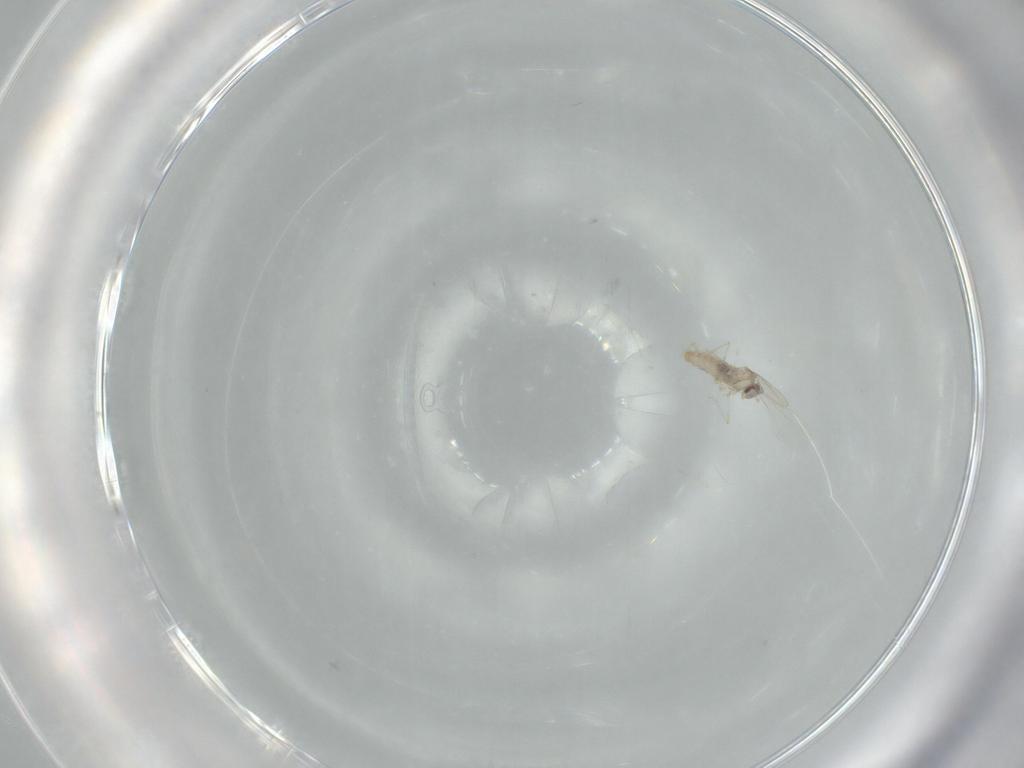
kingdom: Animalia
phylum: Arthropoda
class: Insecta
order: Diptera
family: Cecidomyiidae
